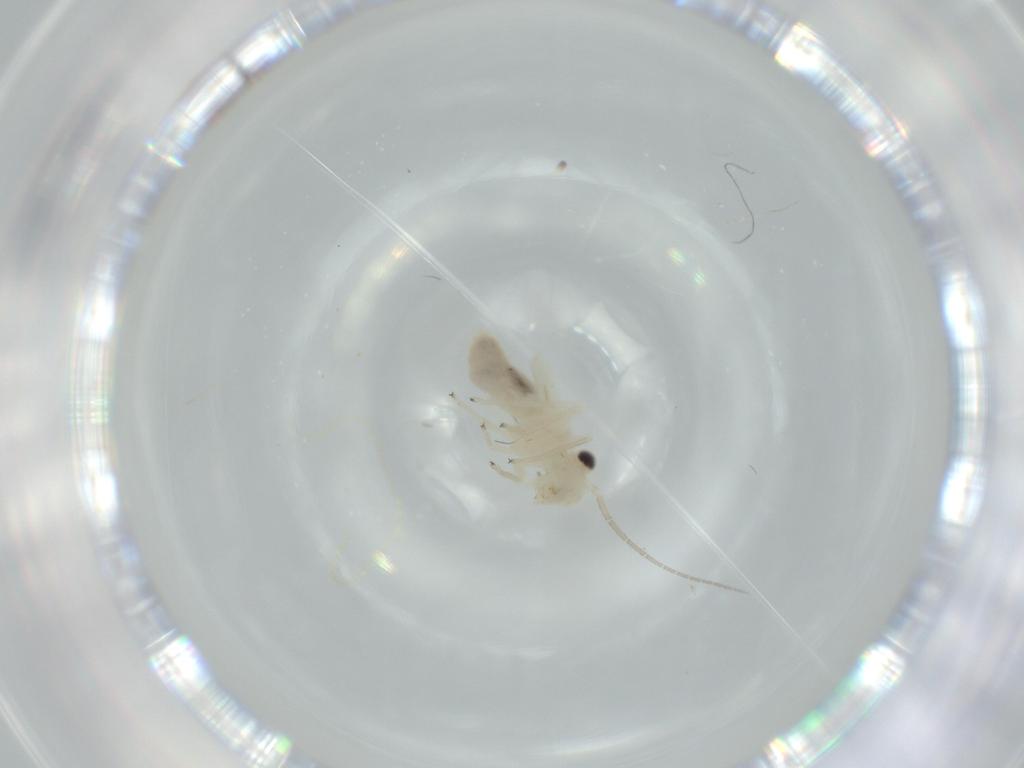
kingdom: Animalia
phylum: Arthropoda
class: Insecta
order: Psocodea
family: Caeciliusidae
